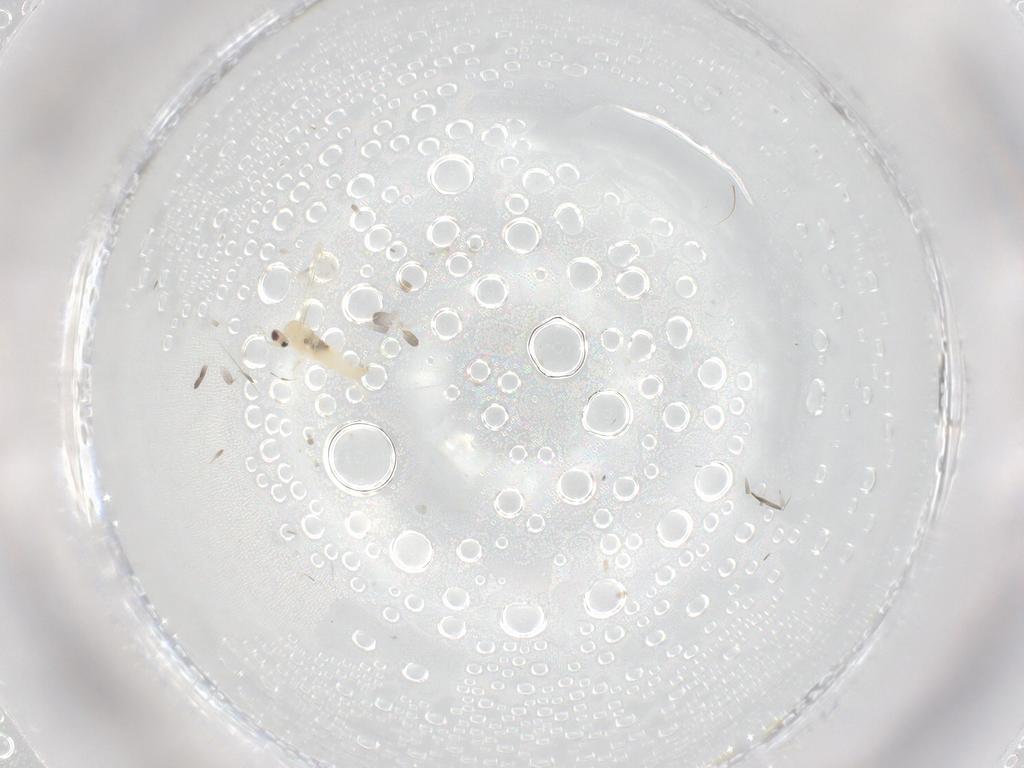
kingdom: Animalia
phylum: Arthropoda
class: Insecta
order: Diptera
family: Cecidomyiidae
